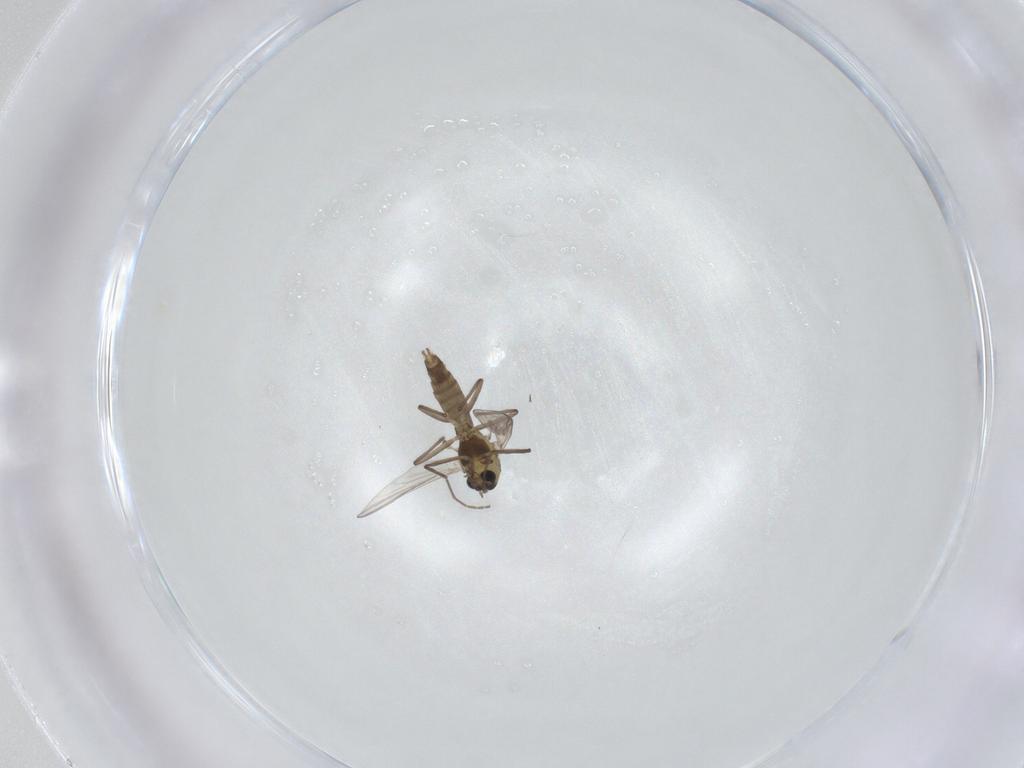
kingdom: Animalia
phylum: Arthropoda
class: Insecta
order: Diptera
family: Chironomidae
